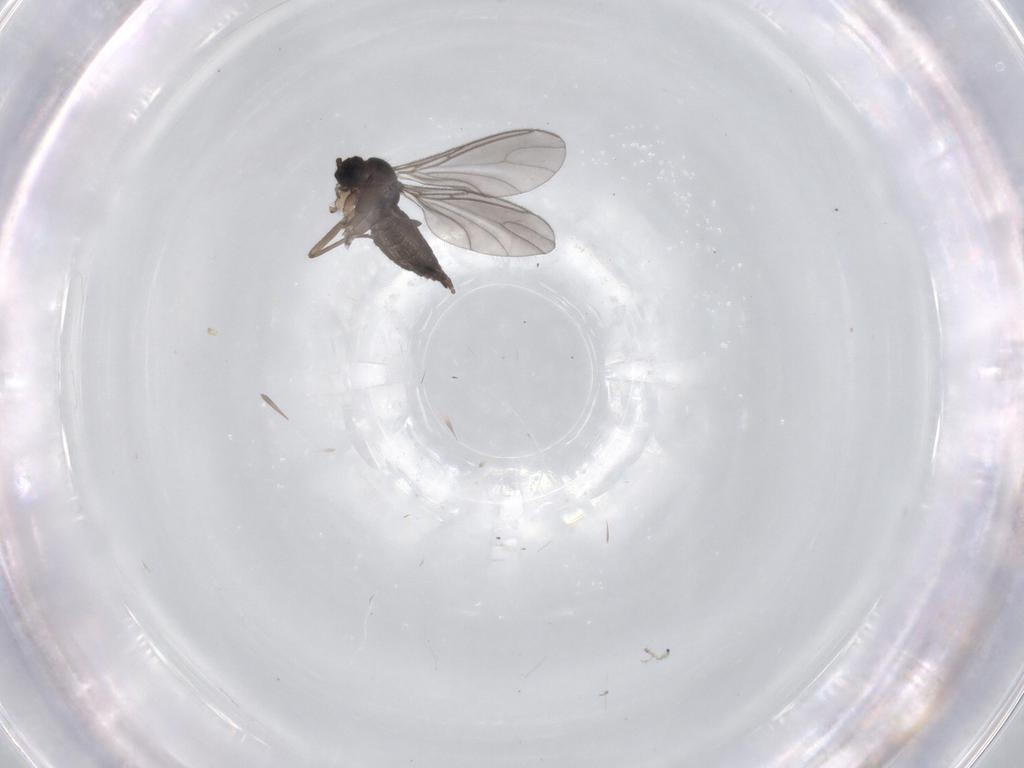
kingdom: Animalia
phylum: Arthropoda
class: Insecta
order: Diptera
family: Sciaridae
